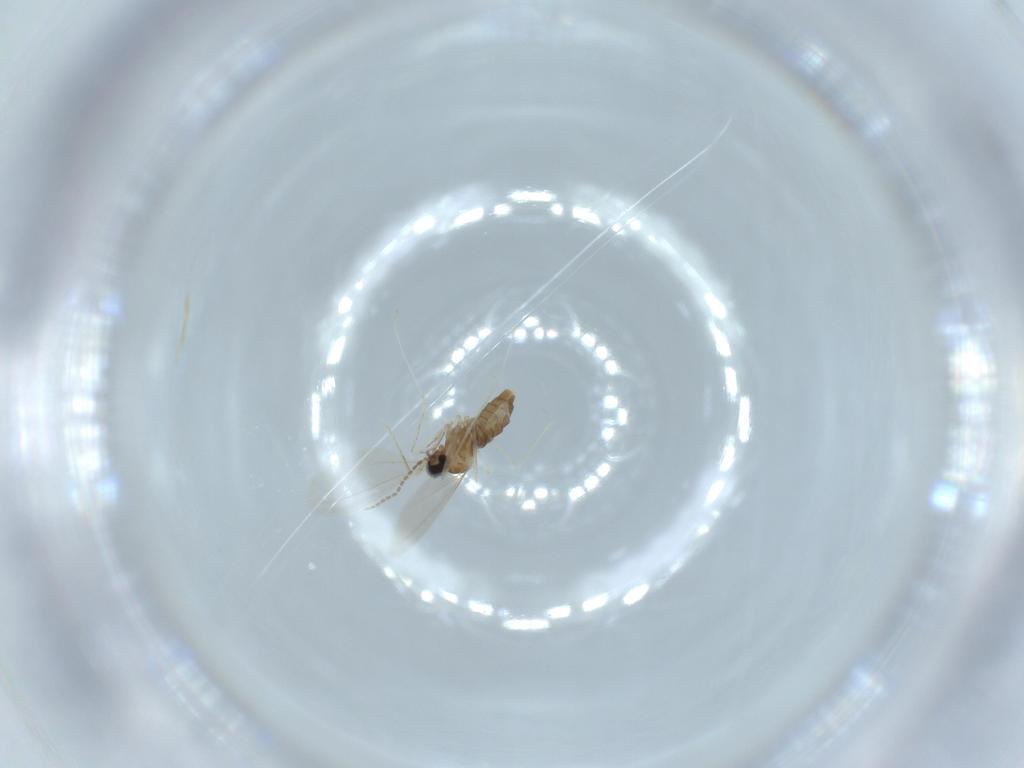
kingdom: Animalia
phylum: Arthropoda
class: Insecta
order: Diptera
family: Cecidomyiidae
